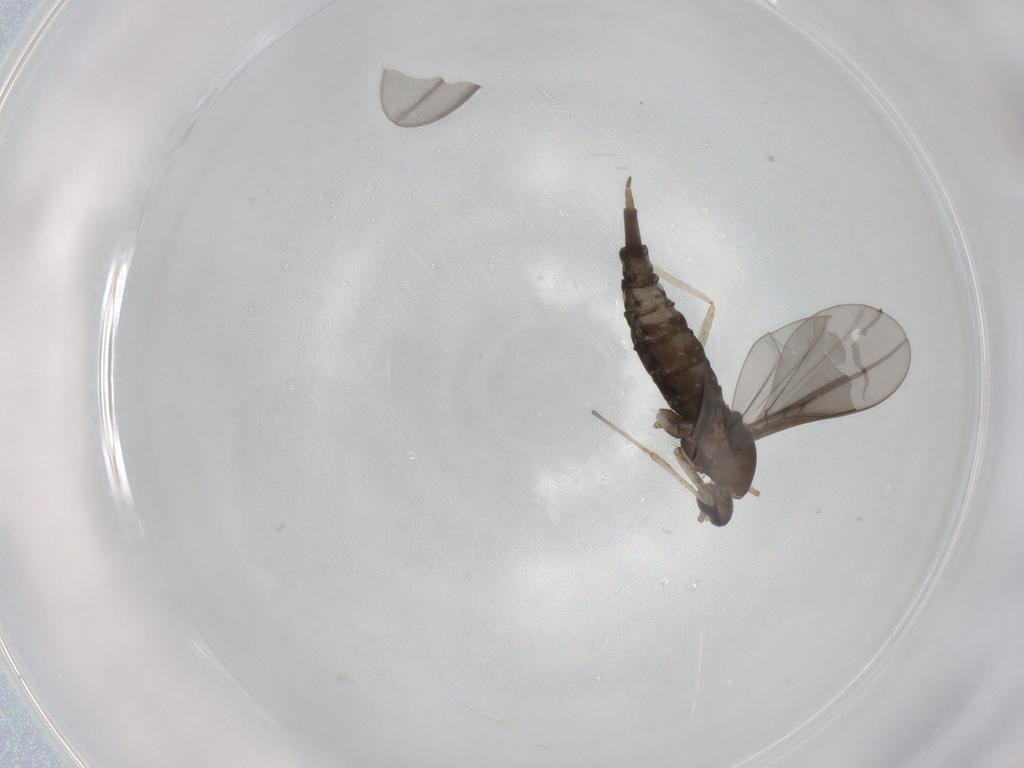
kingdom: Animalia
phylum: Arthropoda
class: Insecta
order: Diptera
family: Cecidomyiidae
